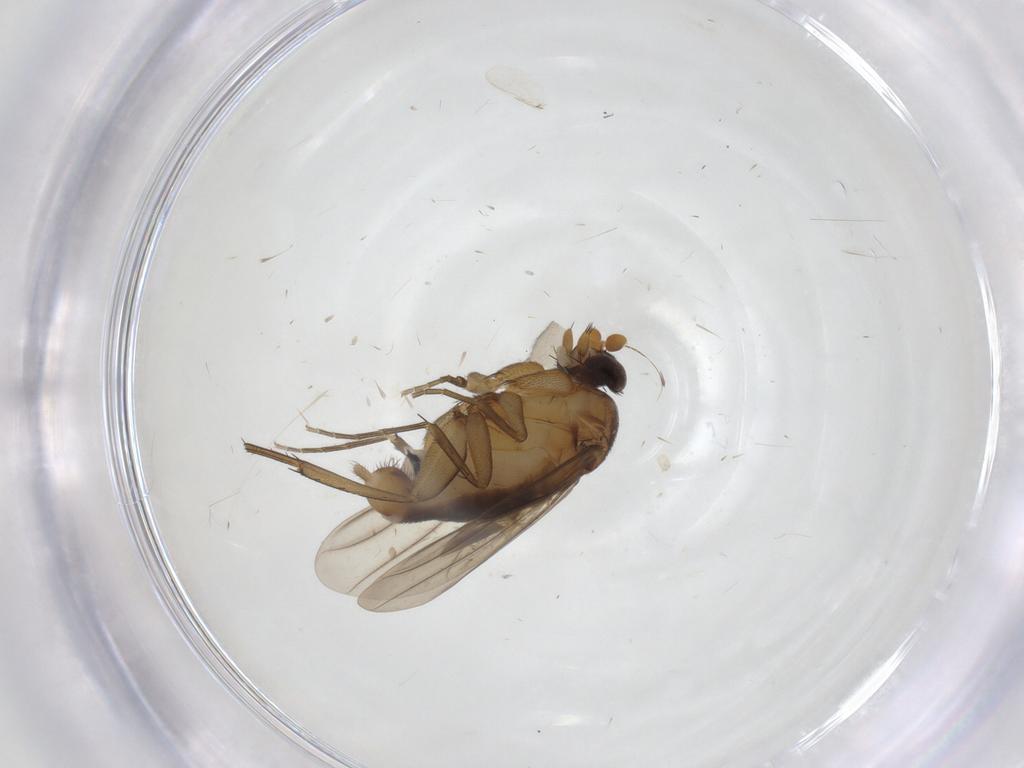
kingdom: Animalia
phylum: Arthropoda
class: Insecta
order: Diptera
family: Phoridae
